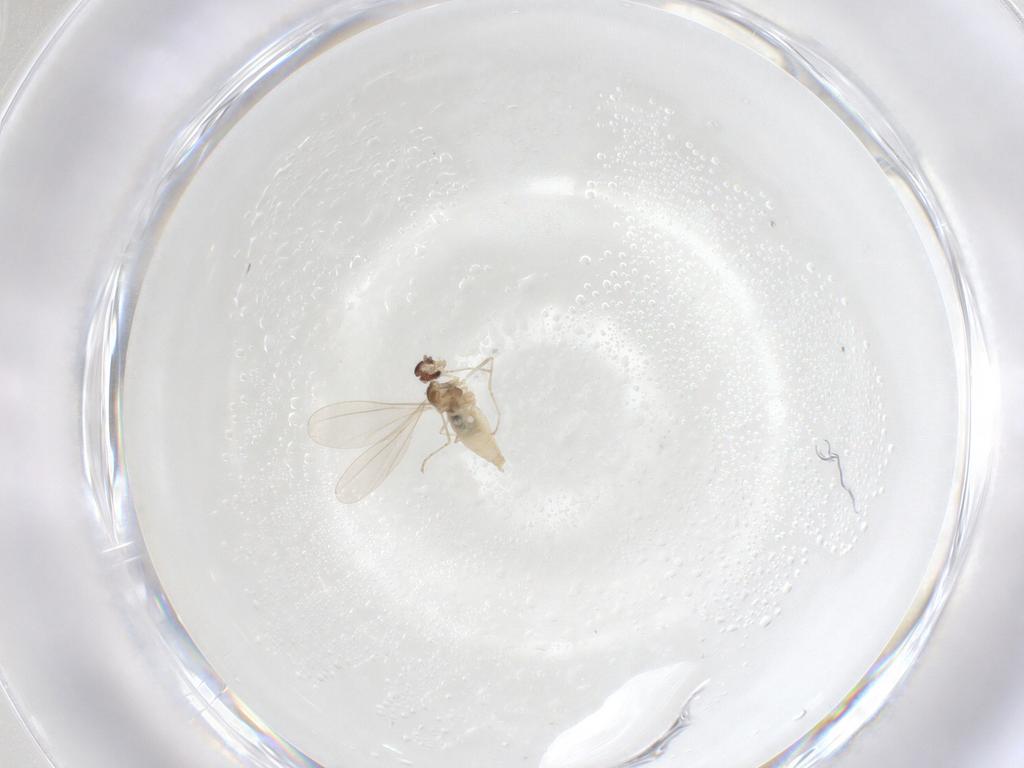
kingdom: Animalia
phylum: Arthropoda
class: Insecta
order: Diptera
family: Cecidomyiidae
